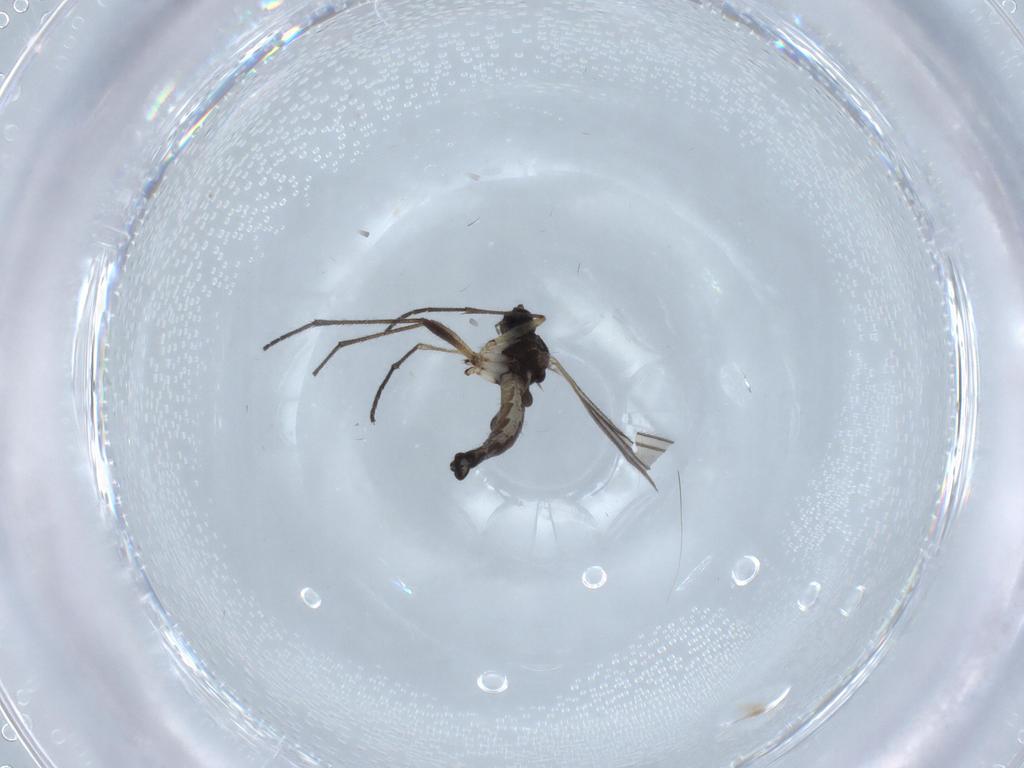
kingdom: Animalia
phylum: Arthropoda
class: Insecta
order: Diptera
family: Sciaridae
